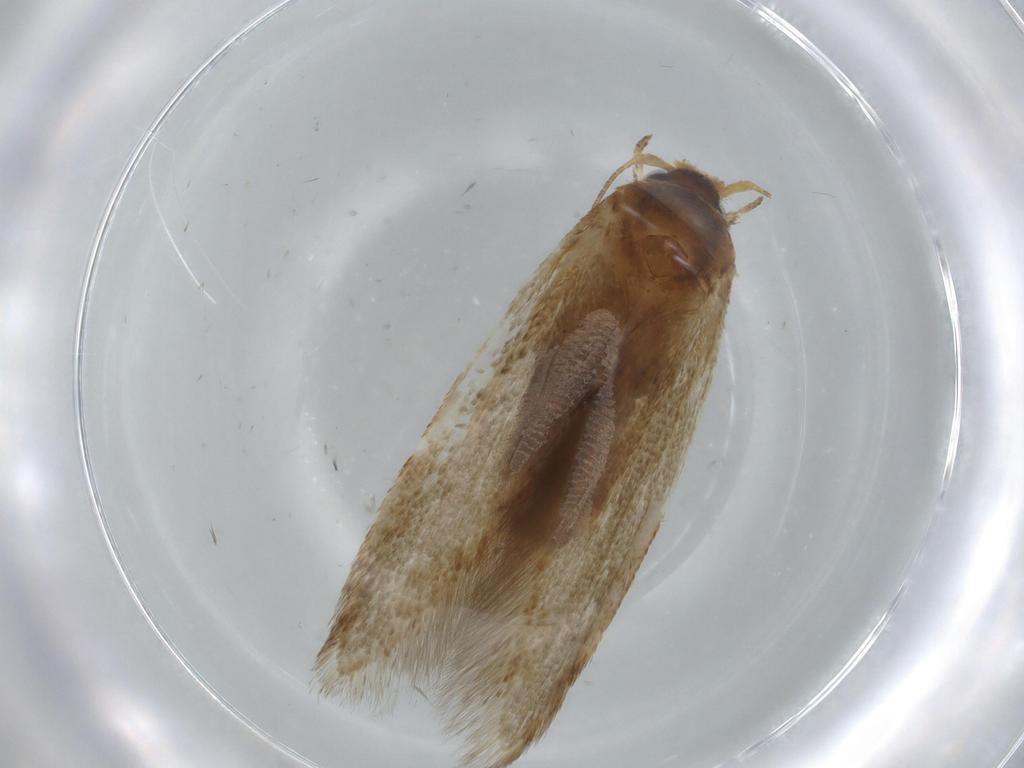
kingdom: Animalia
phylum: Arthropoda
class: Insecta
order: Lepidoptera
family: Coleophoridae
